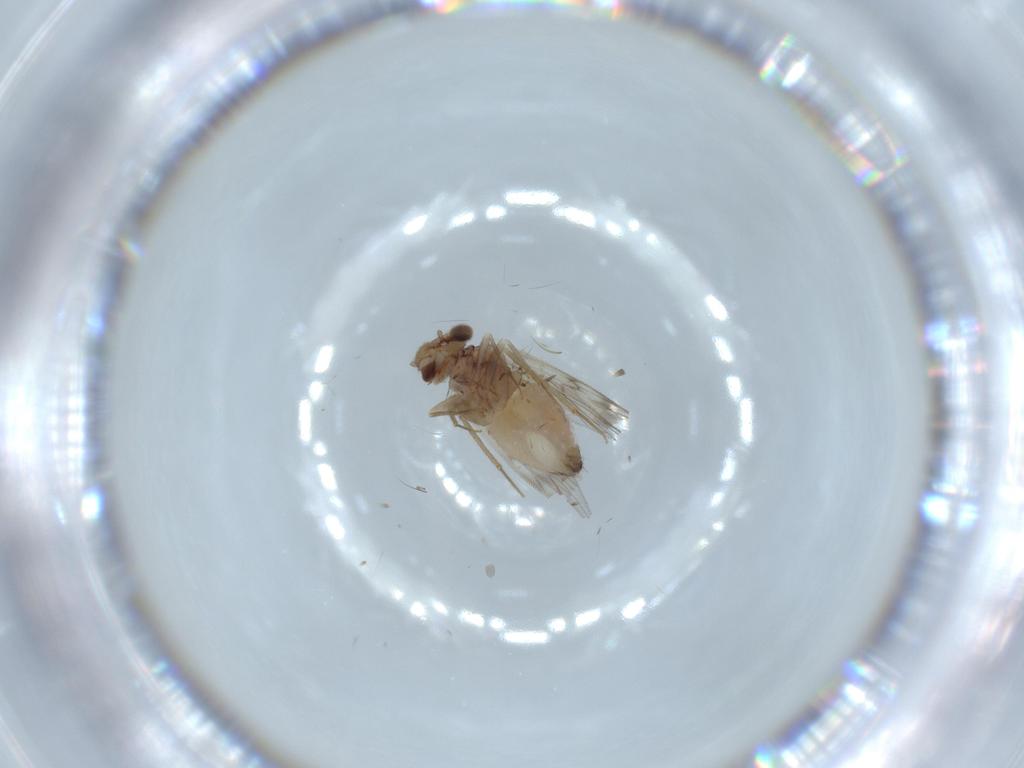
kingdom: Animalia
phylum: Arthropoda
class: Insecta
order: Psocodea
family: Lepidopsocidae
